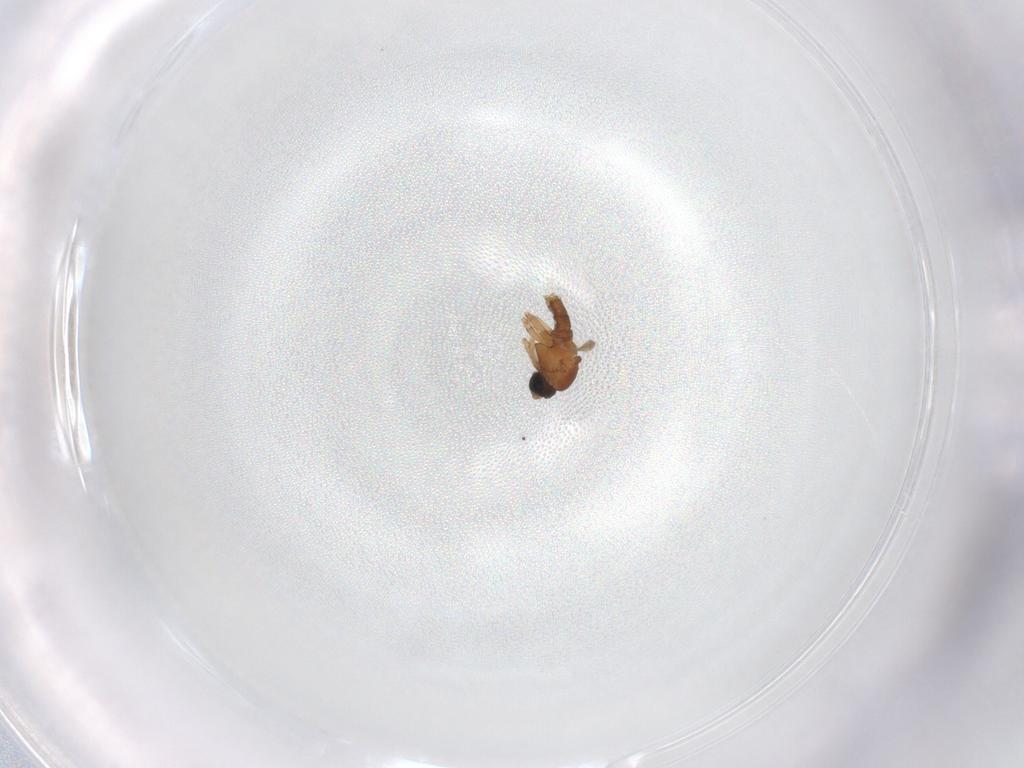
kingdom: Animalia
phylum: Arthropoda
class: Insecta
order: Diptera
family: Sciaridae
